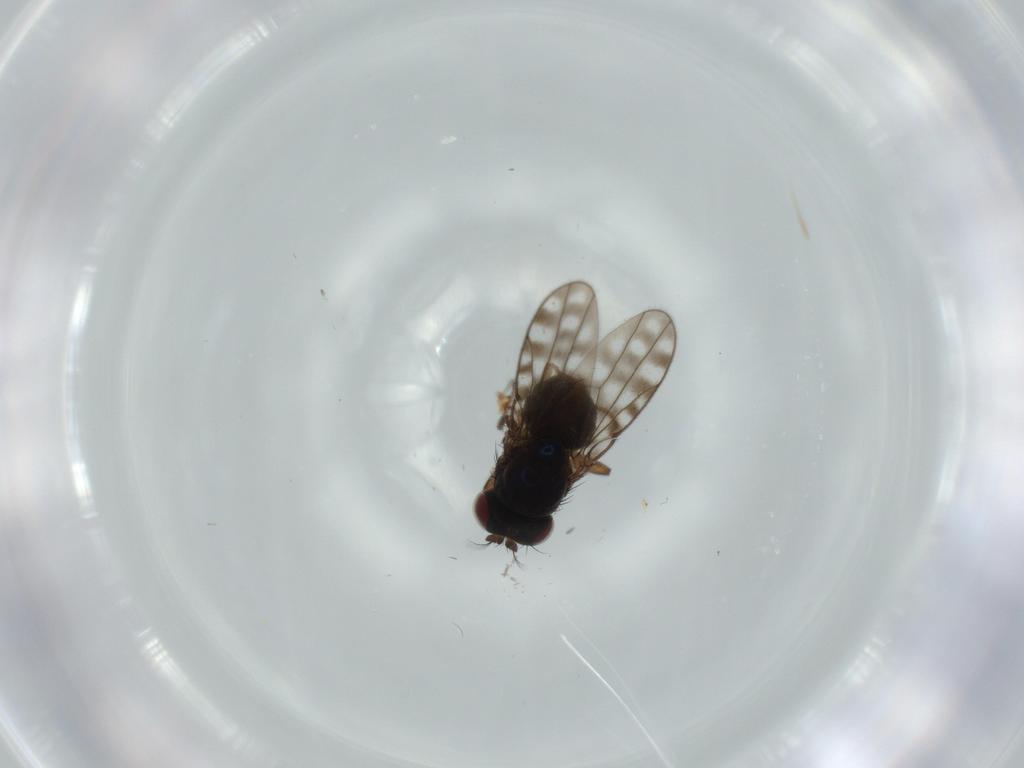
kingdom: Animalia
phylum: Arthropoda
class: Insecta
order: Diptera
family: Ephydridae
